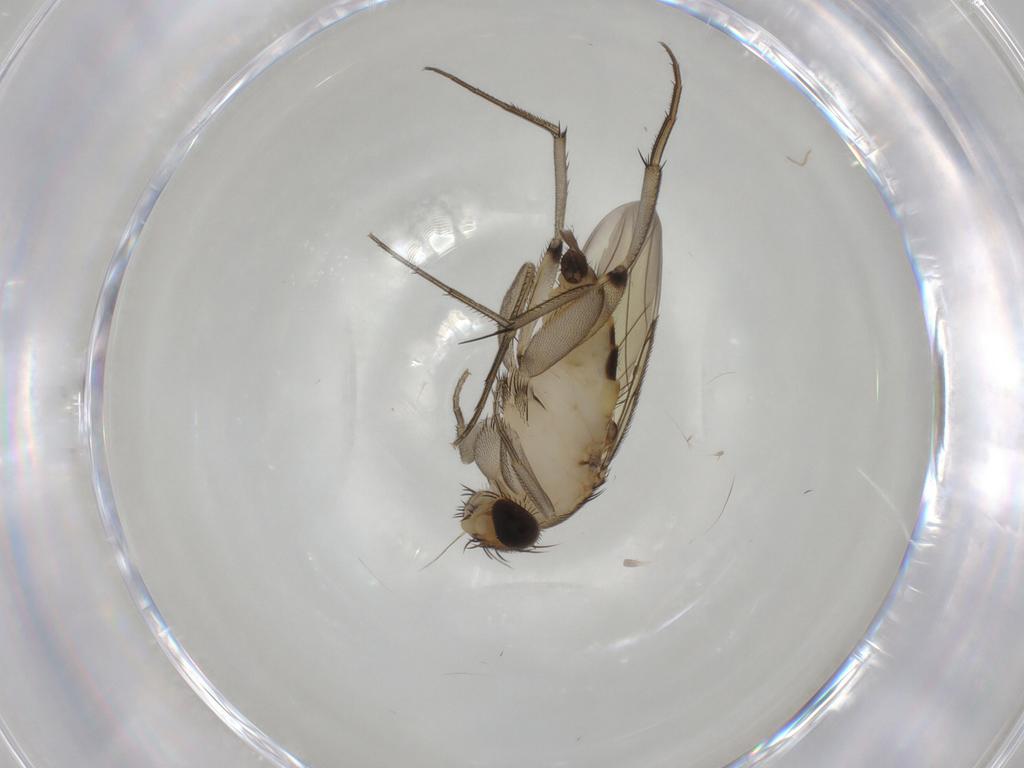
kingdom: Animalia
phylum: Arthropoda
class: Insecta
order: Diptera
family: Phoridae
